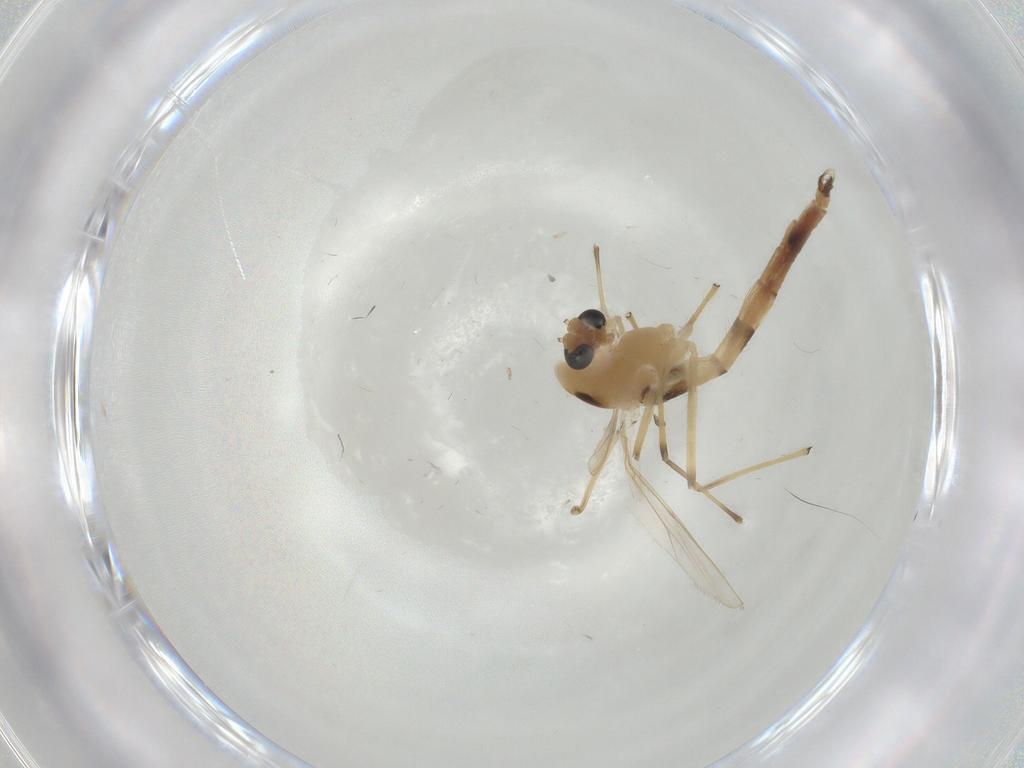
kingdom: Animalia
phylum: Arthropoda
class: Insecta
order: Diptera
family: Chironomidae
